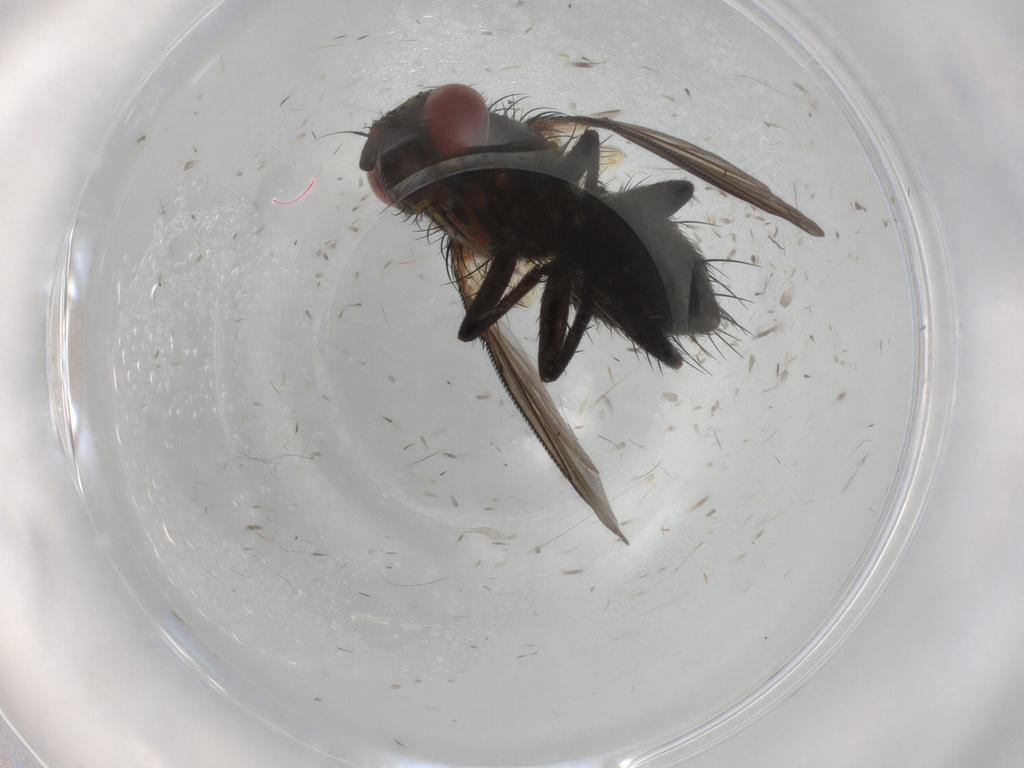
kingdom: Animalia
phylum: Arthropoda
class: Insecta
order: Diptera
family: Tachinidae
